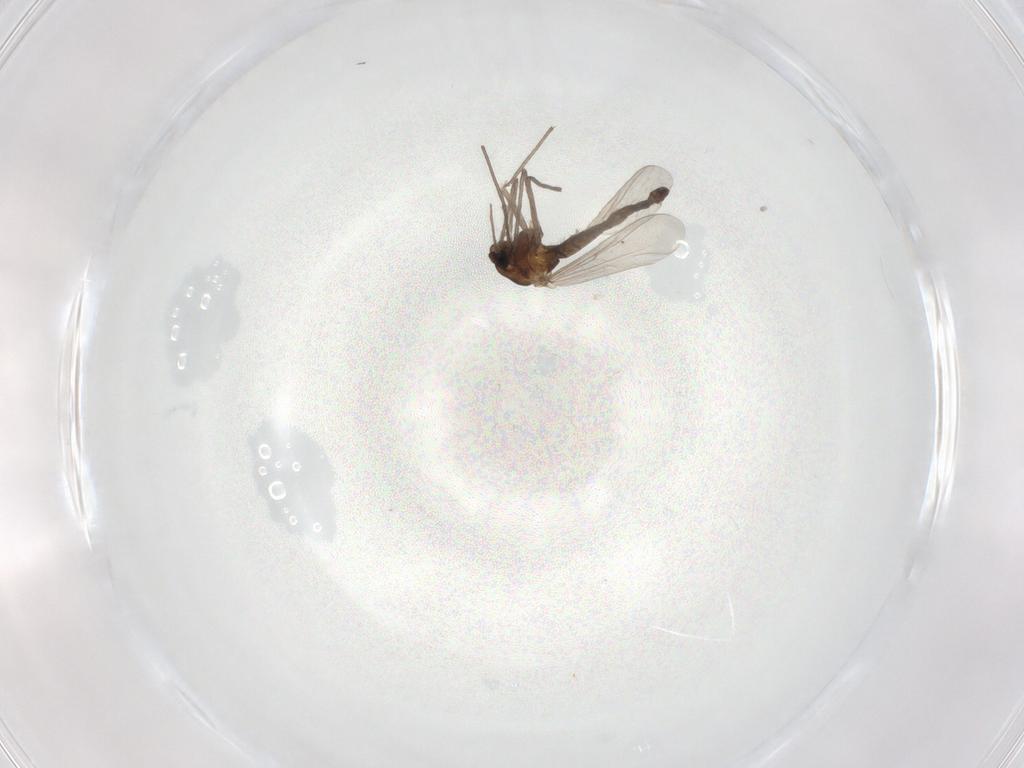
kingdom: Animalia
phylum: Arthropoda
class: Insecta
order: Diptera
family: Chironomidae
